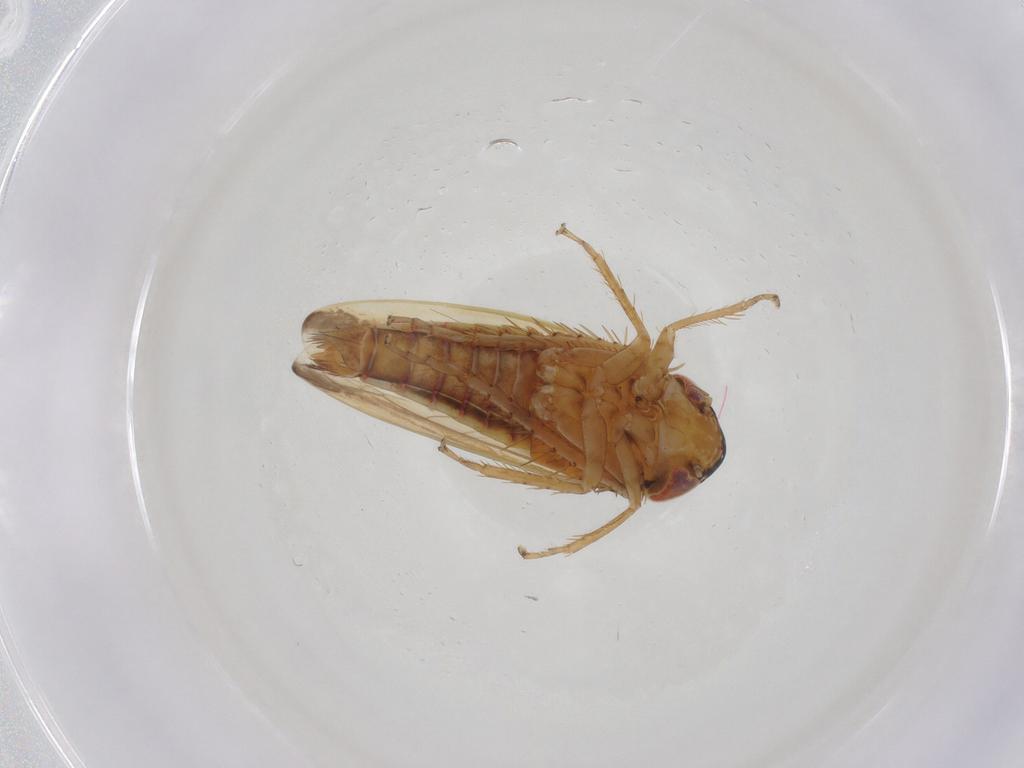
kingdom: Animalia
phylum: Arthropoda
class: Insecta
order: Hemiptera
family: Cicadellidae
